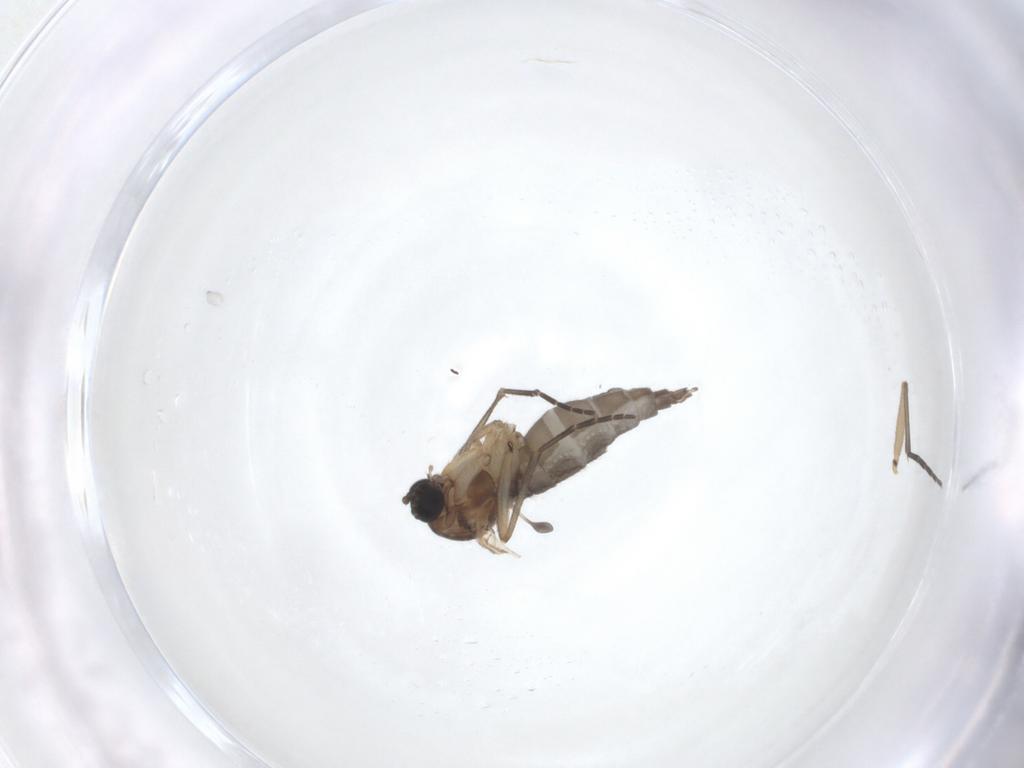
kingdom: Animalia
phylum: Arthropoda
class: Insecta
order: Diptera
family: Sciaridae
